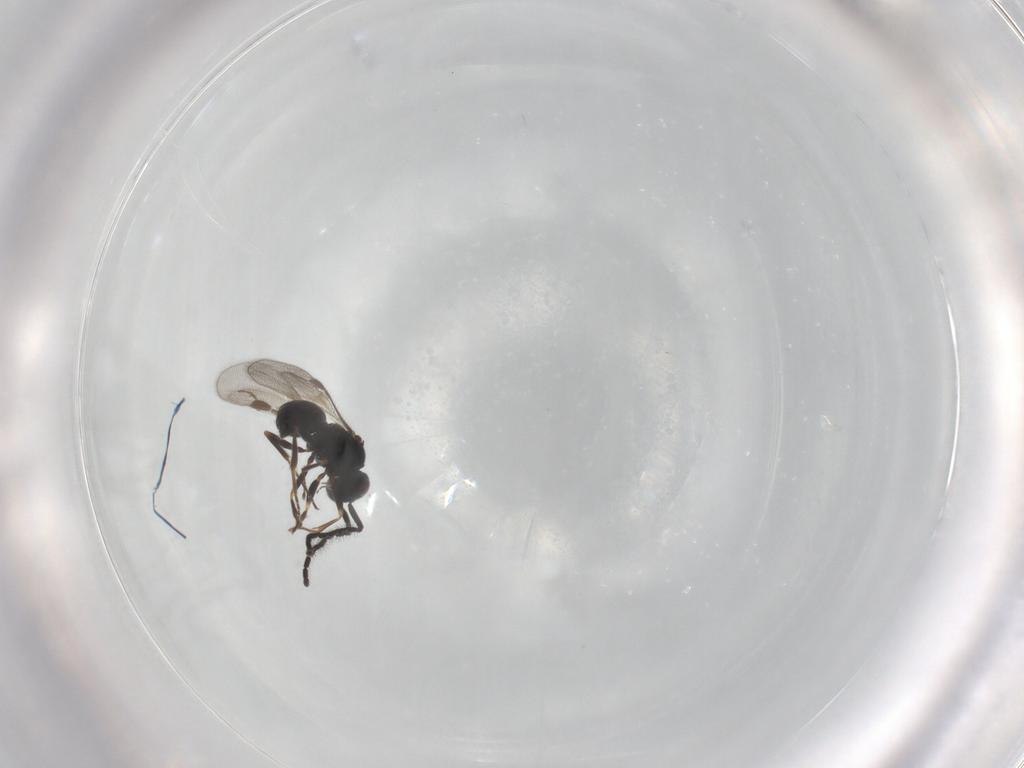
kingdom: Animalia
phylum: Arthropoda
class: Insecta
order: Hymenoptera
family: Megaspilidae
